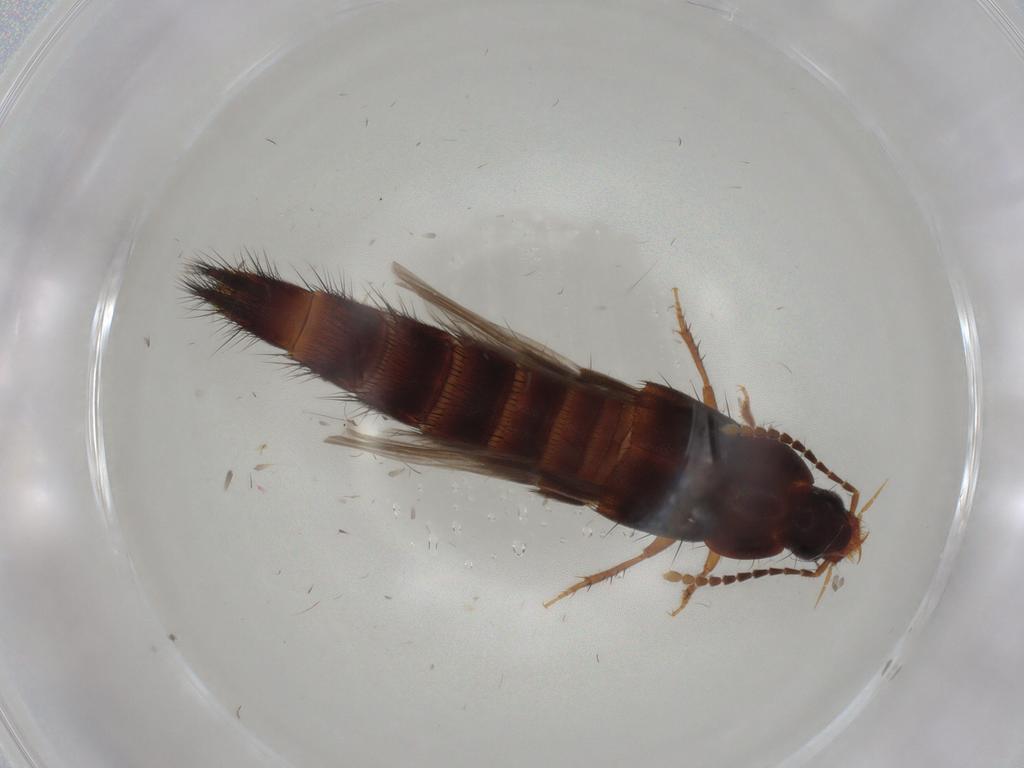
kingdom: Animalia
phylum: Arthropoda
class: Insecta
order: Coleoptera
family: Staphylinidae
